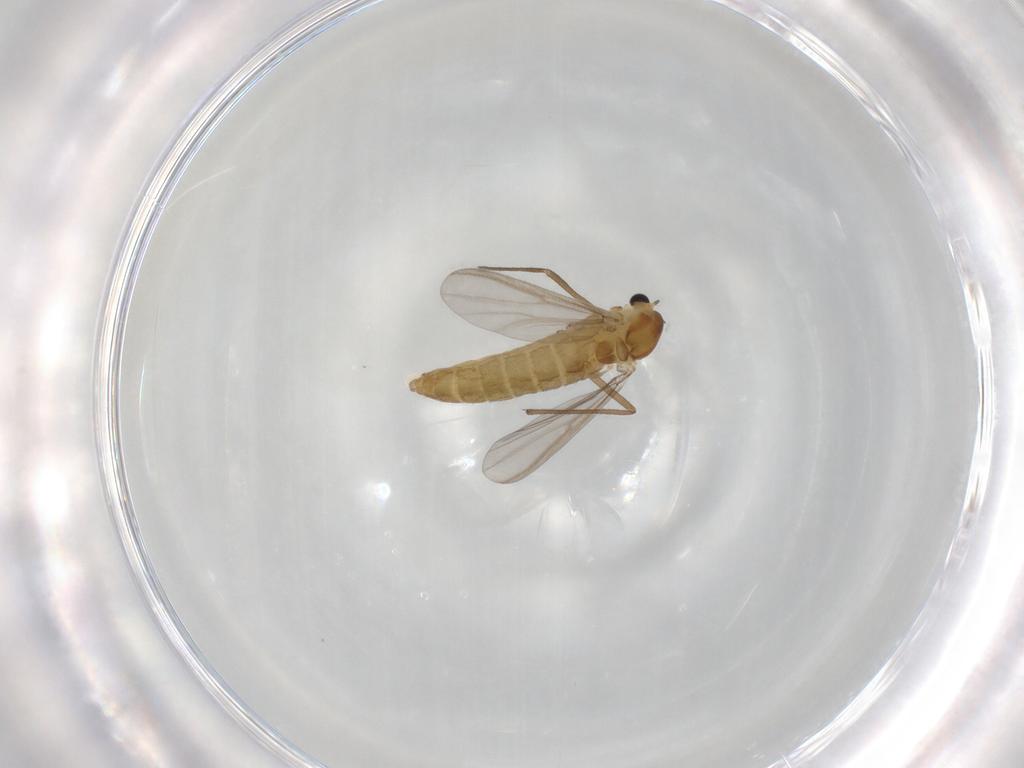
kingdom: Animalia
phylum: Arthropoda
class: Insecta
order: Diptera
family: Chironomidae
